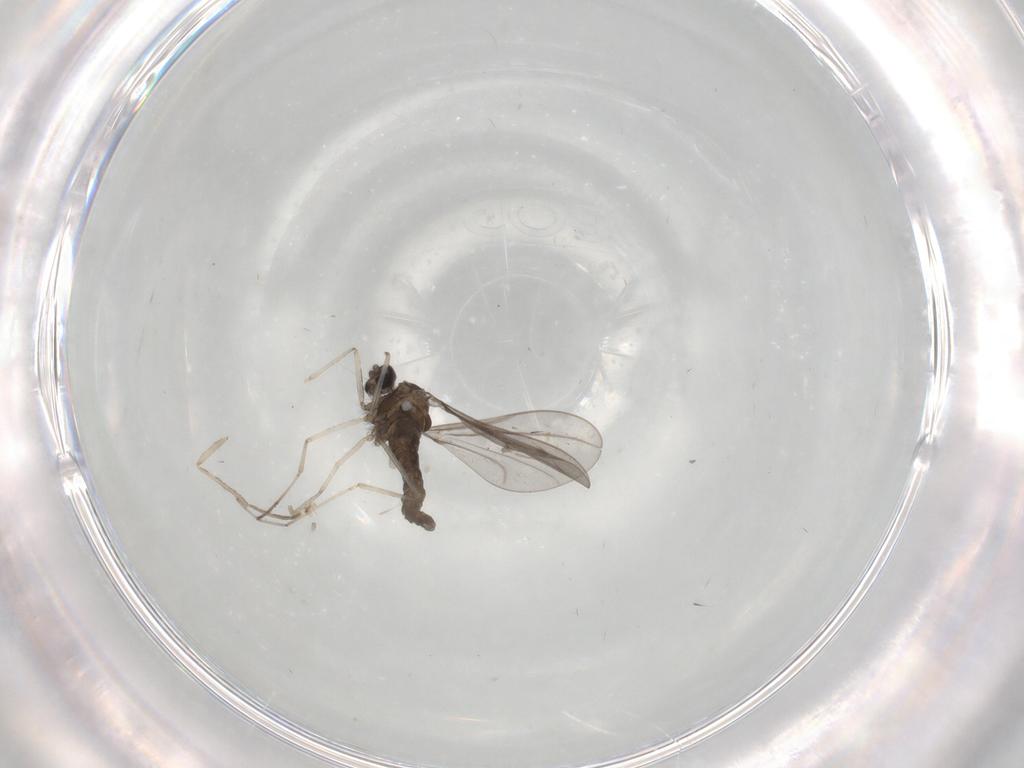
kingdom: Animalia
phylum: Arthropoda
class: Insecta
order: Diptera
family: Cecidomyiidae
